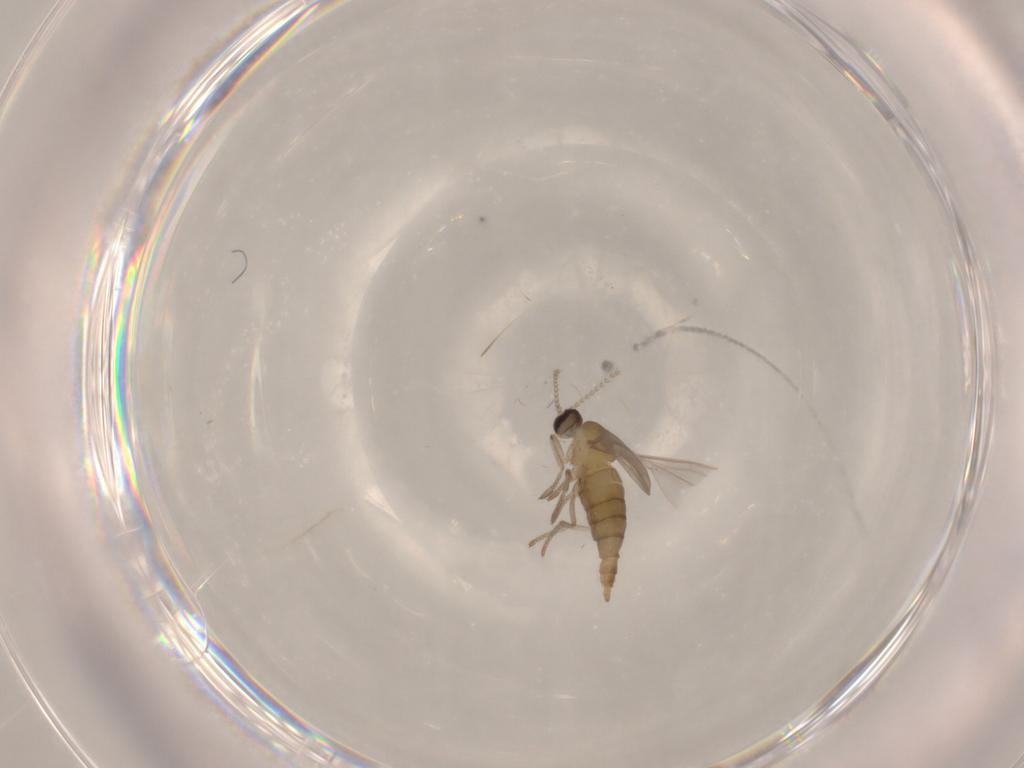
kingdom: Animalia
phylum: Arthropoda
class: Insecta
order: Diptera
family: Cecidomyiidae
